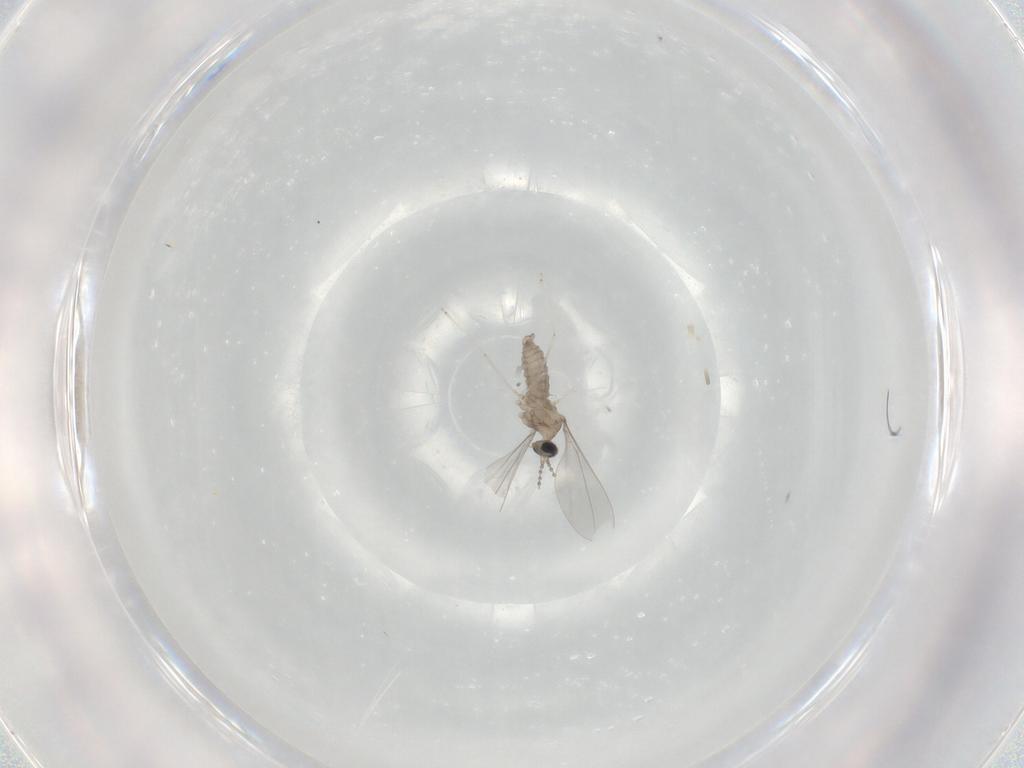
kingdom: Animalia
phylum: Arthropoda
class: Insecta
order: Diptera
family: Cecidomyiidae
